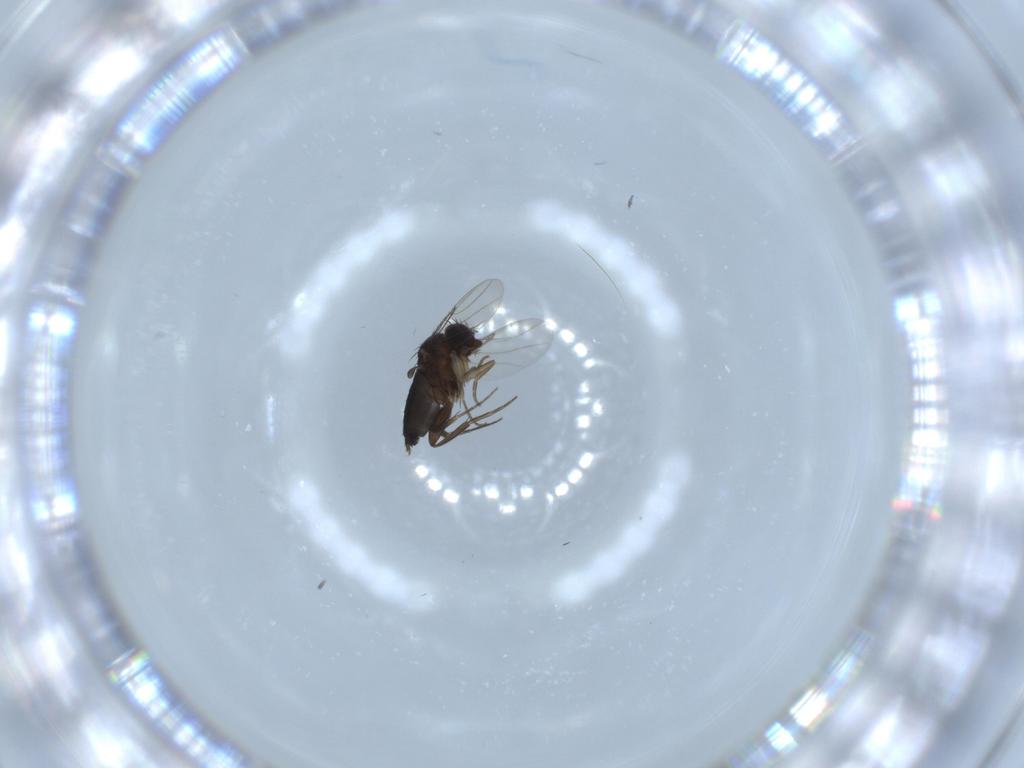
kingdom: Animalia
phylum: Arthropoda
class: Insecta
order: Diptera
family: Phoridae
